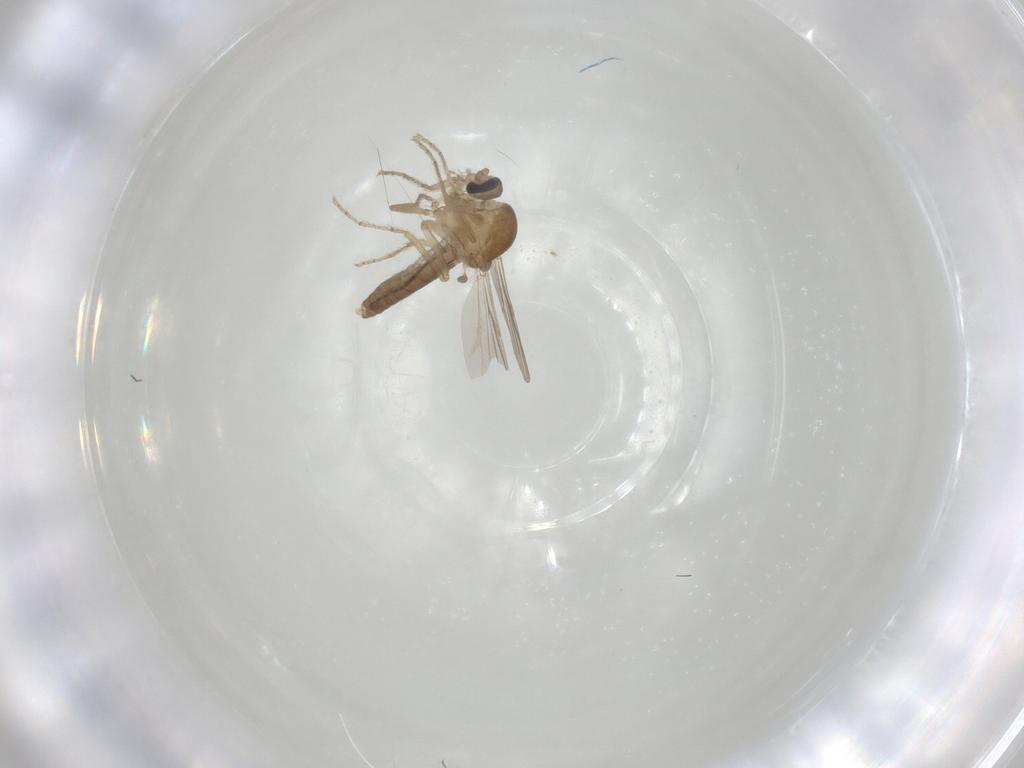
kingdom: Animalia
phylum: Arthropoda
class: Insecta
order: Diptera
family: Ceratopogonidae
